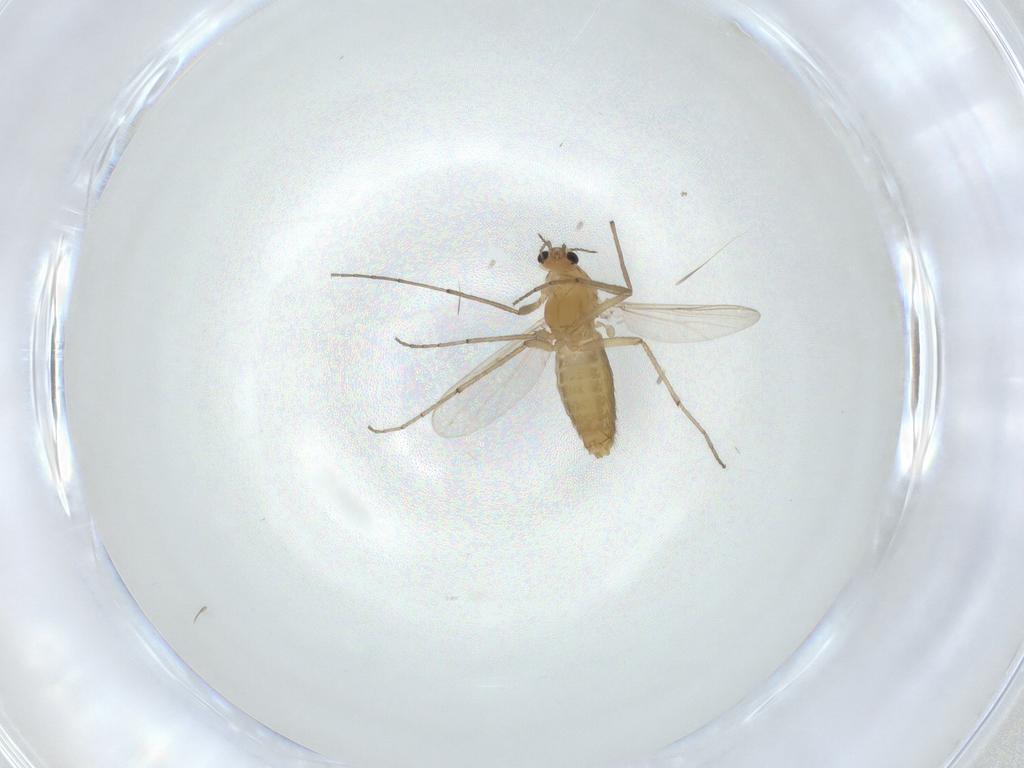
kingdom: Animalia
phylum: Arthropoda
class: Insecta
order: Diptera
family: Chironomidae
